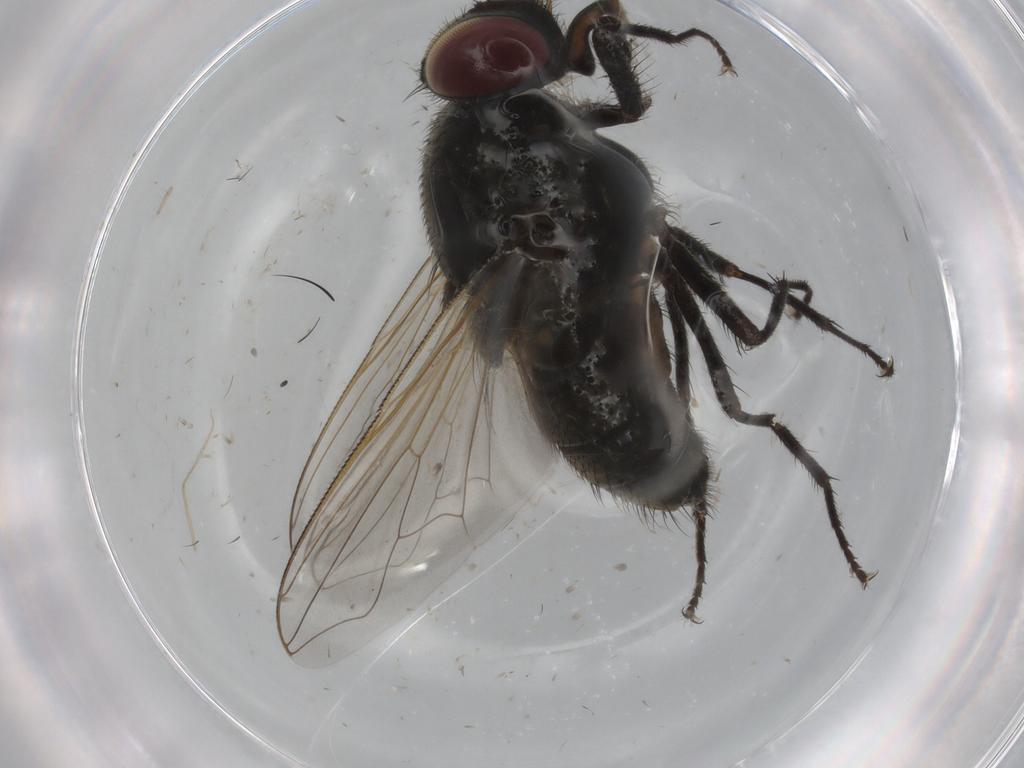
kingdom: Animalia
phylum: Arthropoda
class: Insecta
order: Diptera
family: Muscidae
